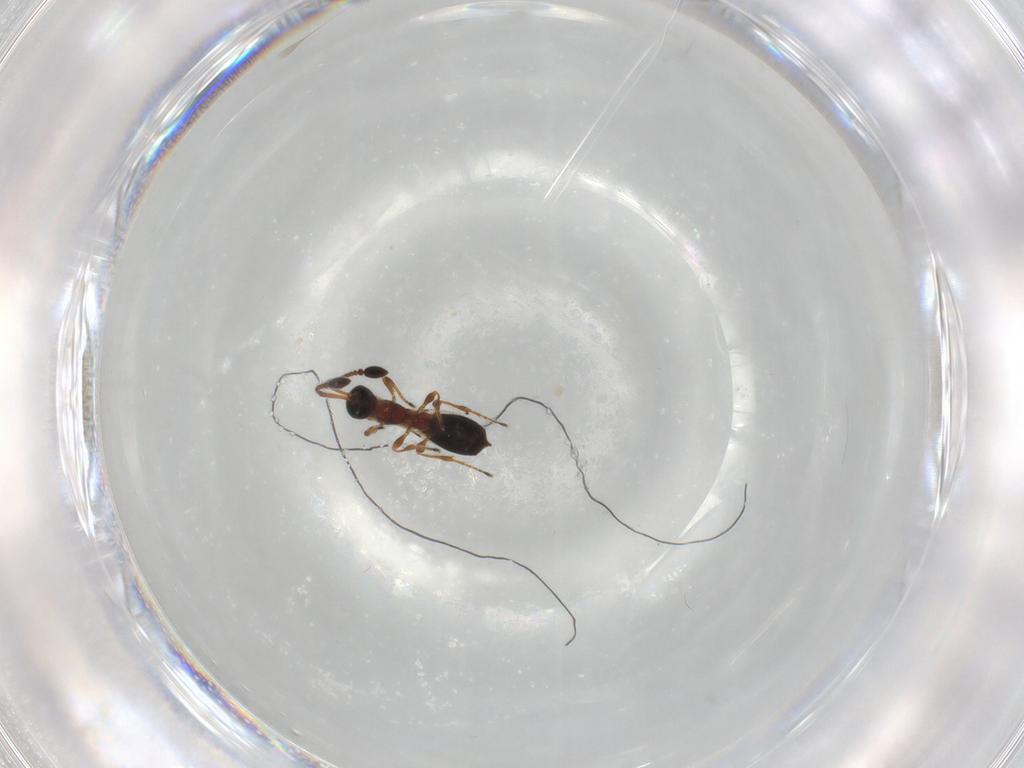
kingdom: Animalia
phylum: Arthropoda
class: Insecta
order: Hymenoptera
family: Diapriidae
